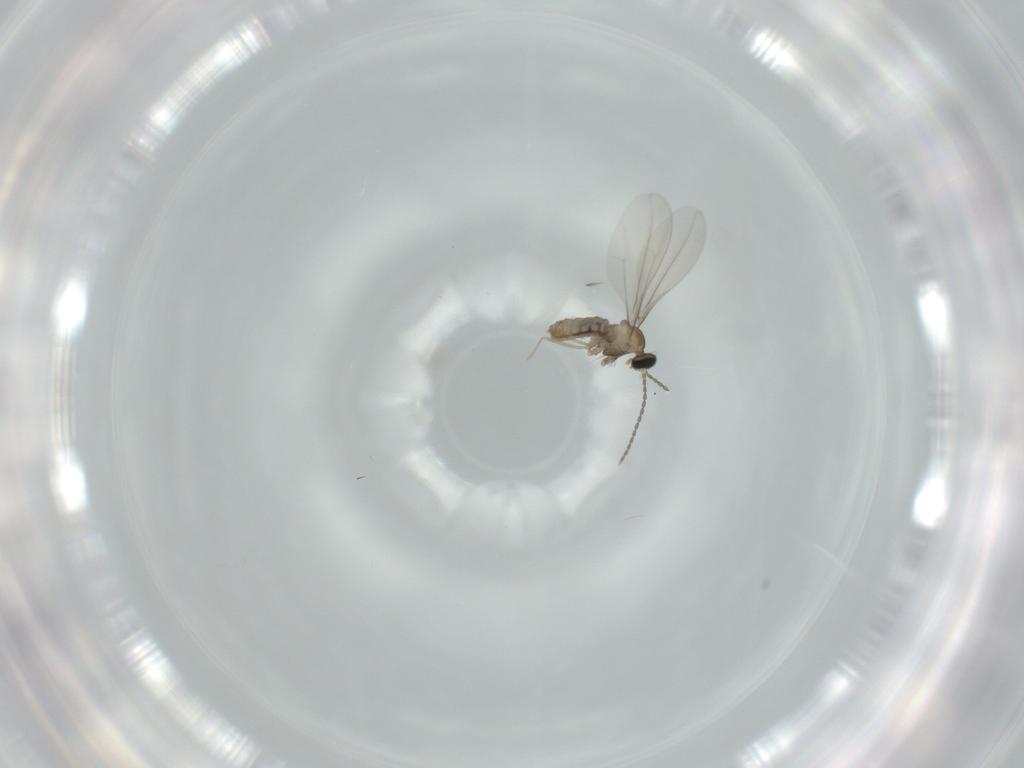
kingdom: Animalia
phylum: Arthropoda
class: Insecta
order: Diptera
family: Cecidomyiidae
